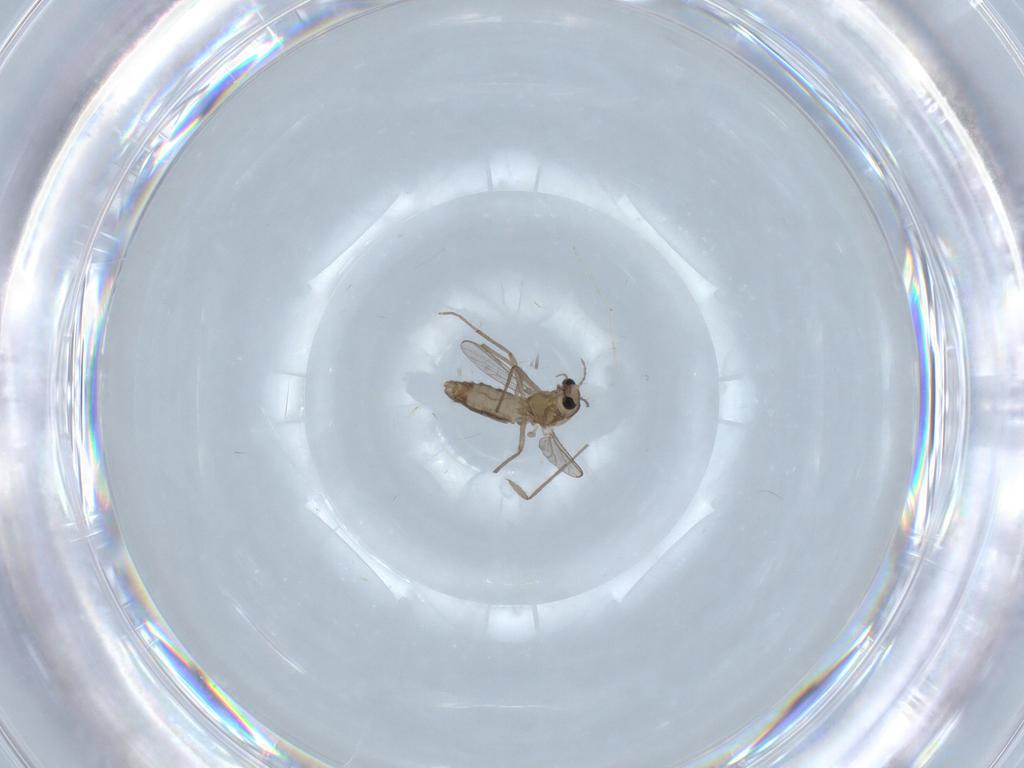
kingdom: Animalia
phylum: Arthropoda
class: Insecta
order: Diptera
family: Chironomidae
